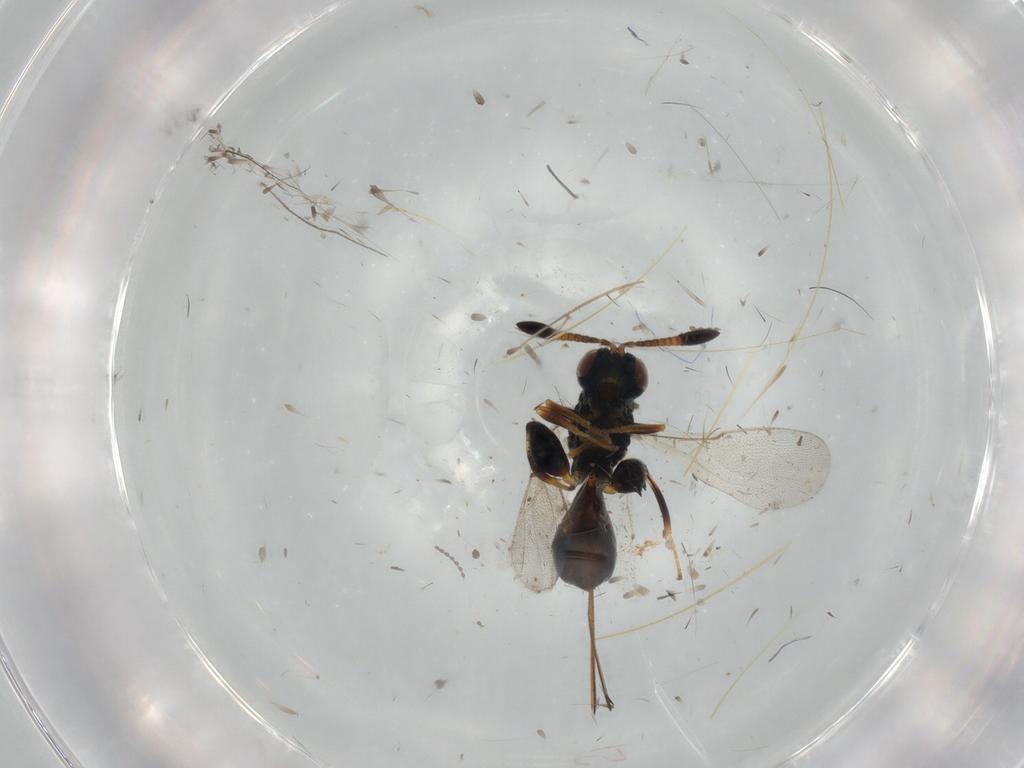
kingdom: Animalia
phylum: Arthropoda
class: Insecta
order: Hymenoptera
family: Torymidae
